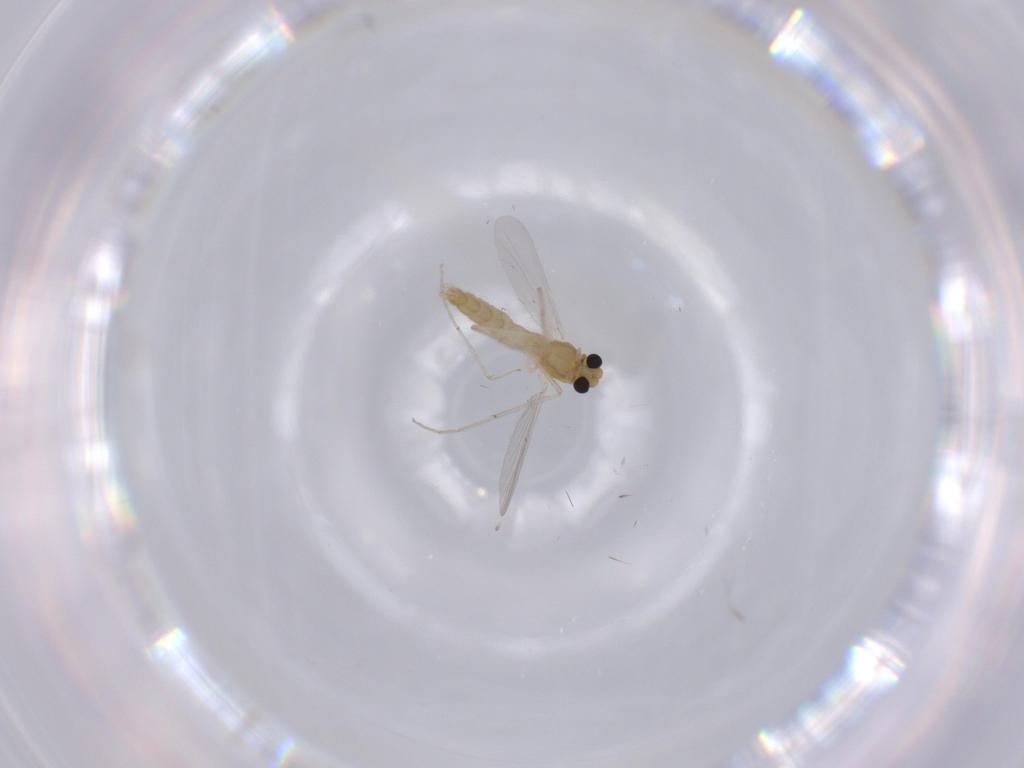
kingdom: Animalia
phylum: Arthropoda
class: Insecta
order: Diptera
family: Chironomidae
